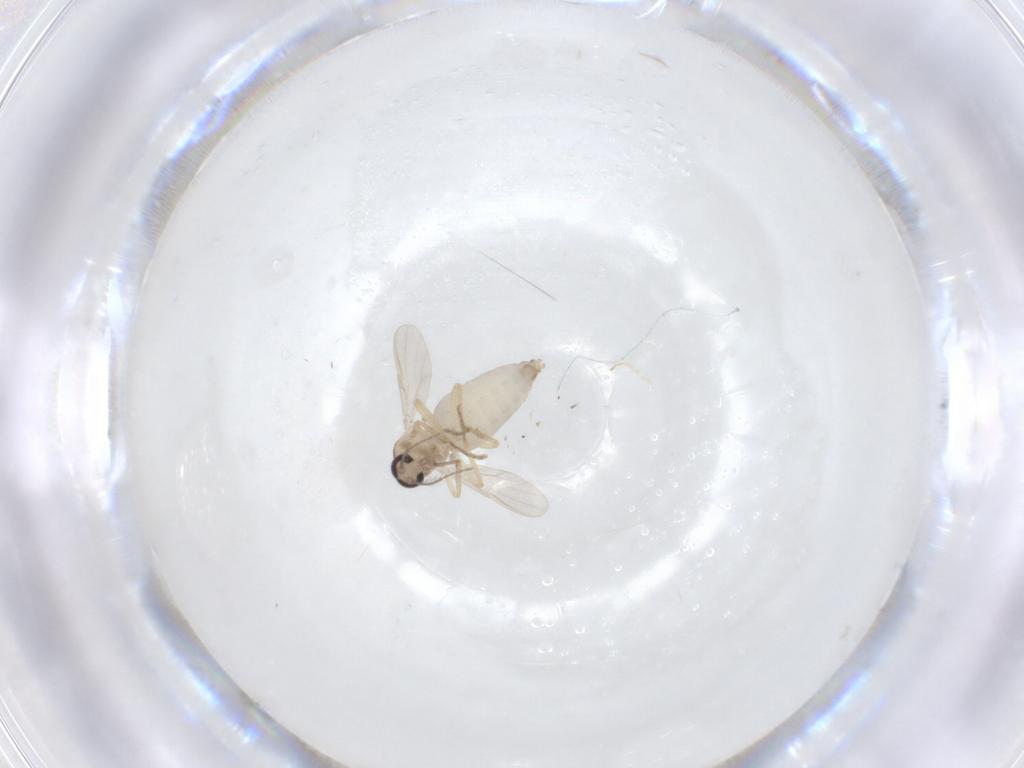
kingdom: Animalia
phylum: Arthropoda
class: Insecta
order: Diptera
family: Ceratopogonidae
